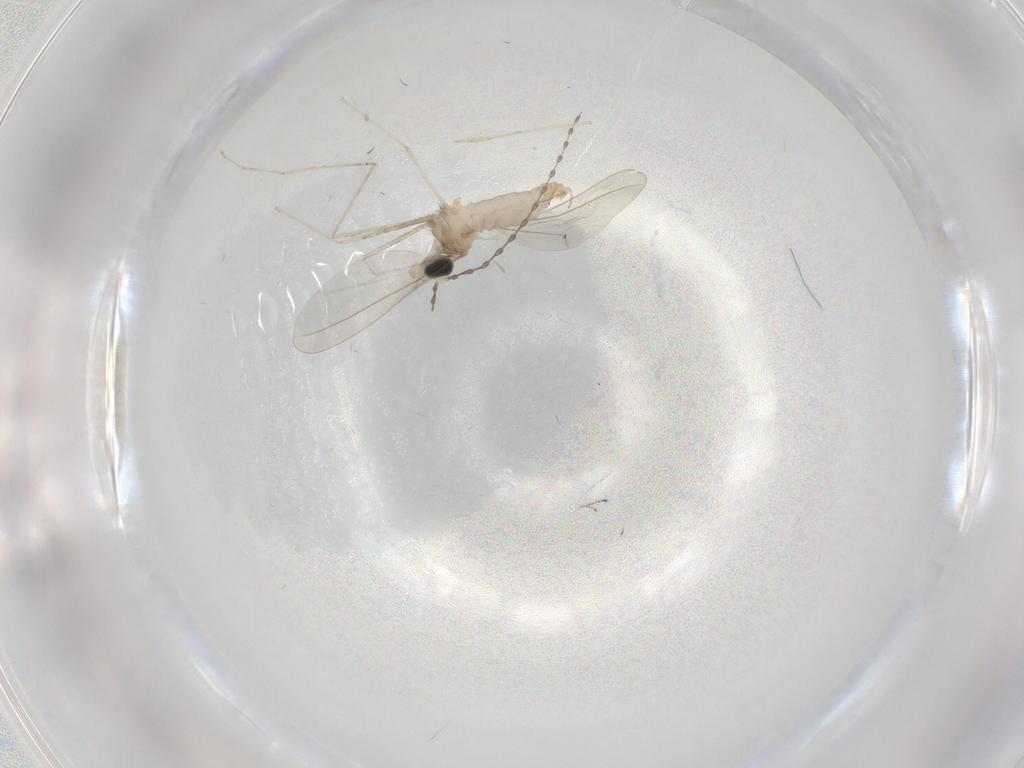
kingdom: Animalia
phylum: Arthropoda
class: Insecta
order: Diptera
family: Cecidomyiidae
